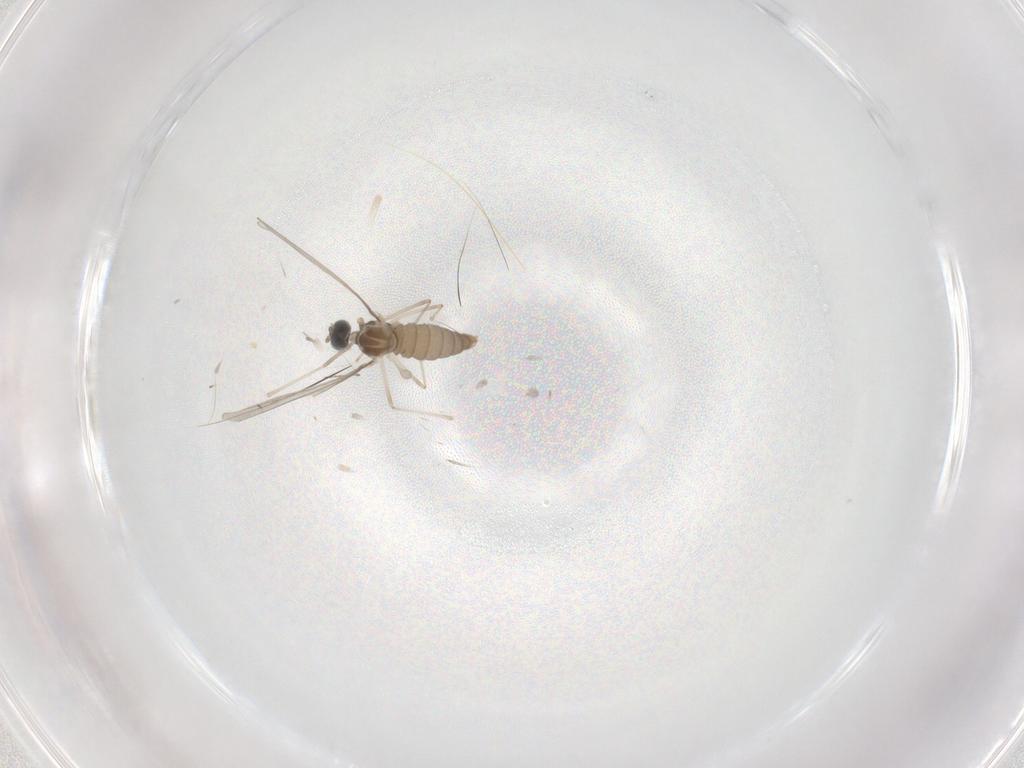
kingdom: Animalia
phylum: Arthropoda
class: Insecta
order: Diptera
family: Cecidomyiidae
